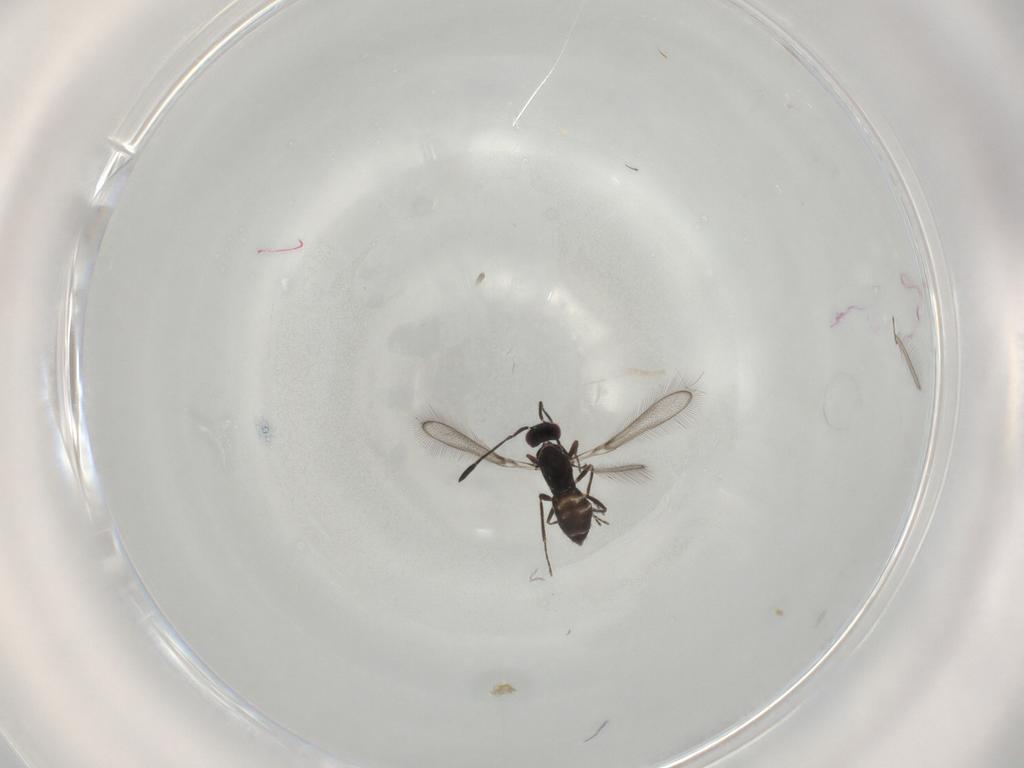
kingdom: Animalia
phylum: Arthropoda
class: Insecta
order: Hymenoptera
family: Mymaridae
